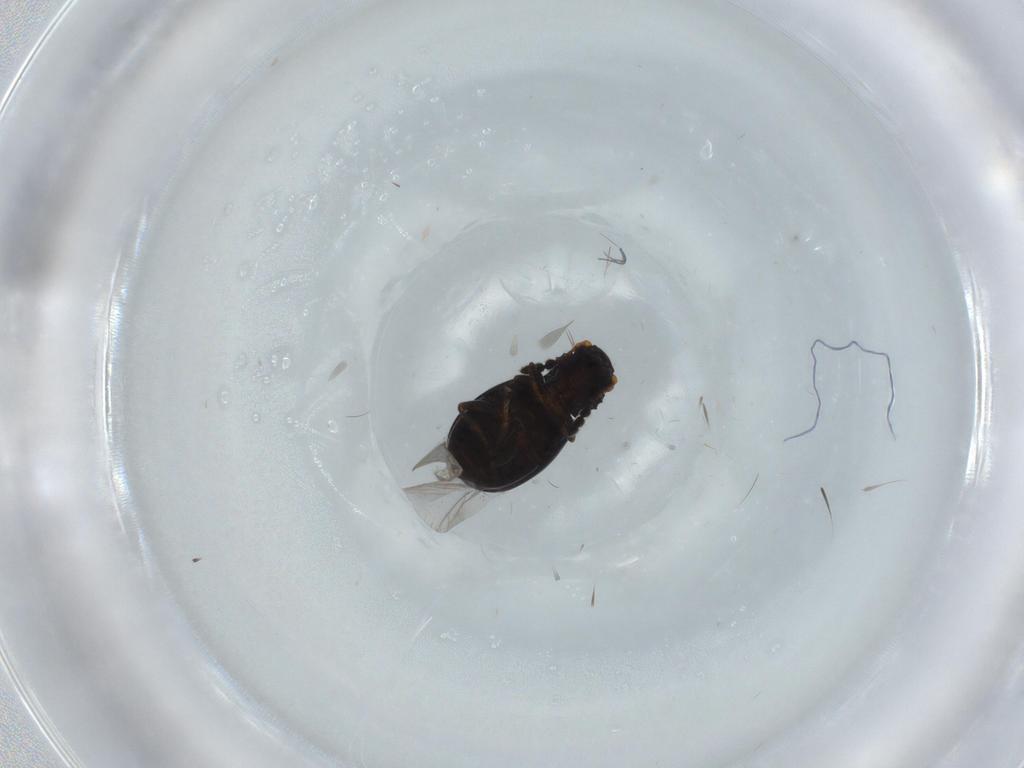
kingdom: Animalia
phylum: Arthropoda
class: Insecta
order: Coleoptera
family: Salpingidae
